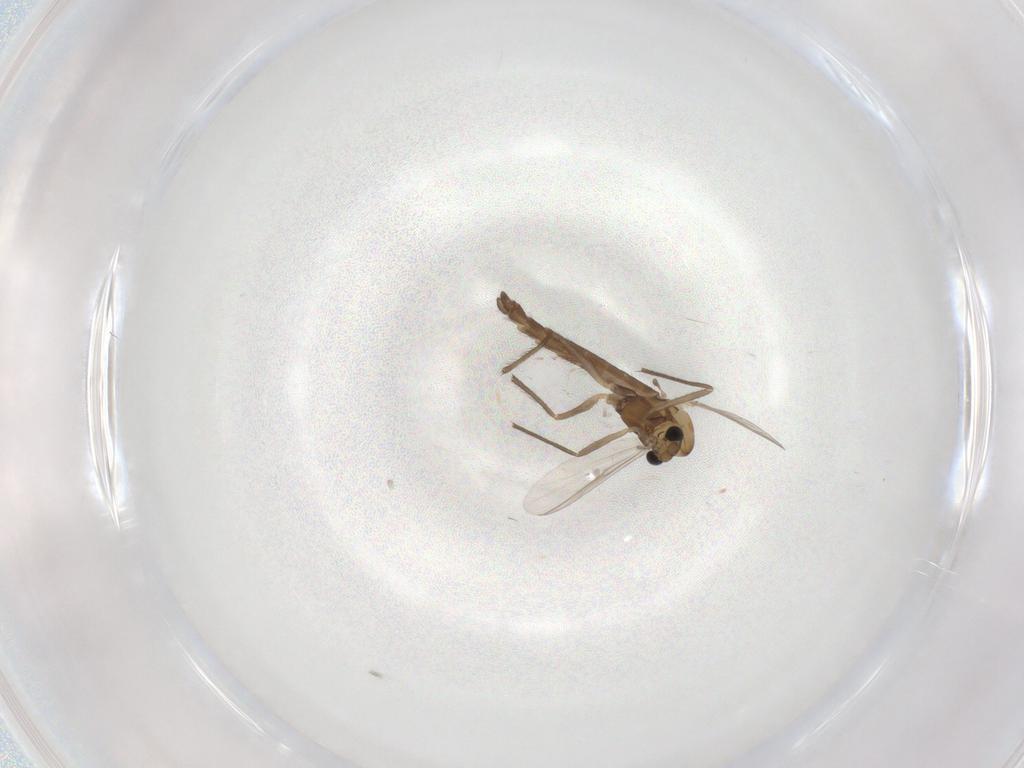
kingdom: Animalia
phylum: Arthropoda
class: Insecta
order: Diptera
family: Chironomidae
